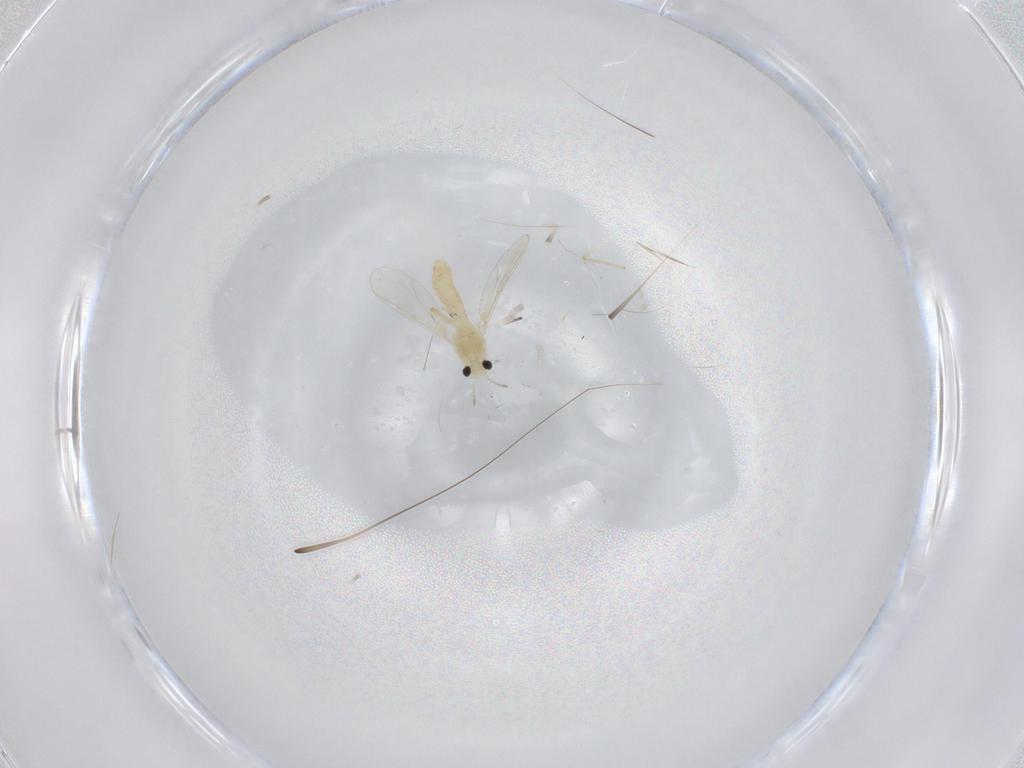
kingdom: Animalia
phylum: Arthropoda
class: Insecta
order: Diptera
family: Chironomidae
